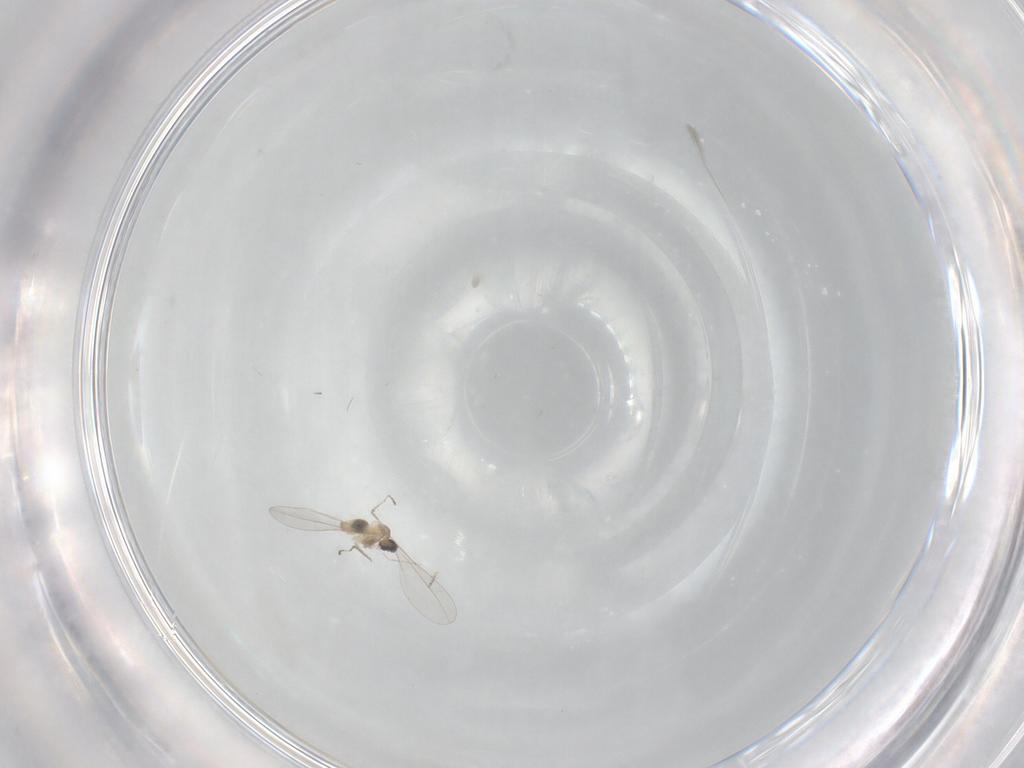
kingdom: Animalia
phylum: Arthropoda
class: Insecta
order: Diptera
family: Cecidomyiidae
